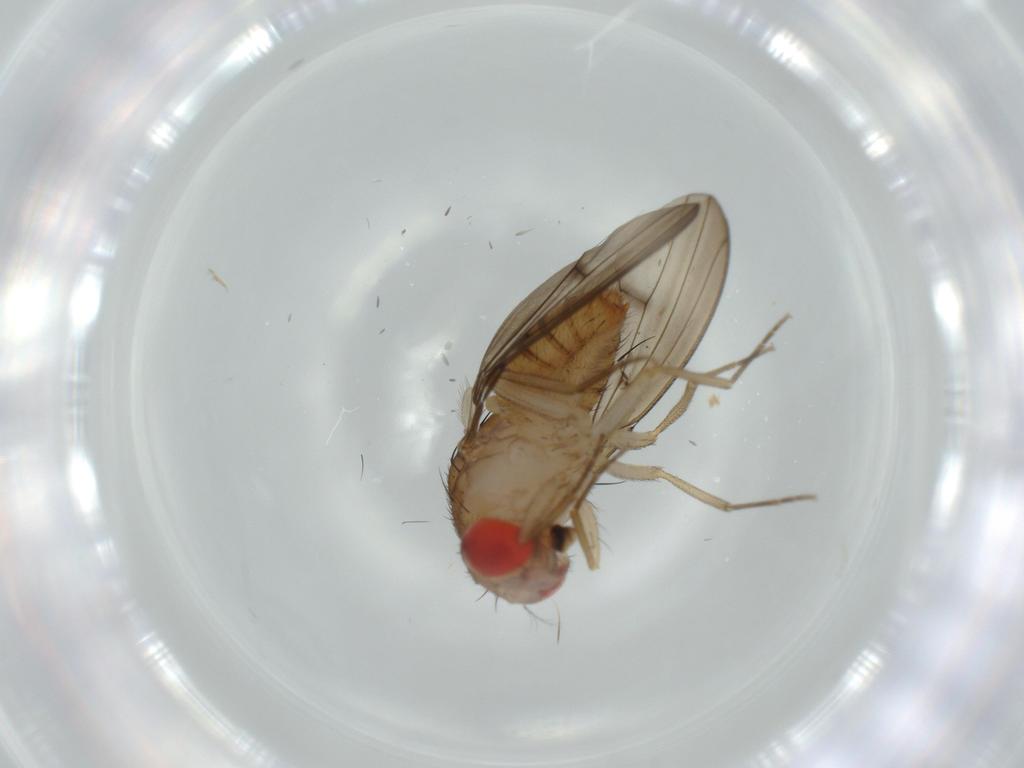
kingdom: Animalia
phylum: Arthropoda
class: Insecta
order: Diptera
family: Drosophilidae
